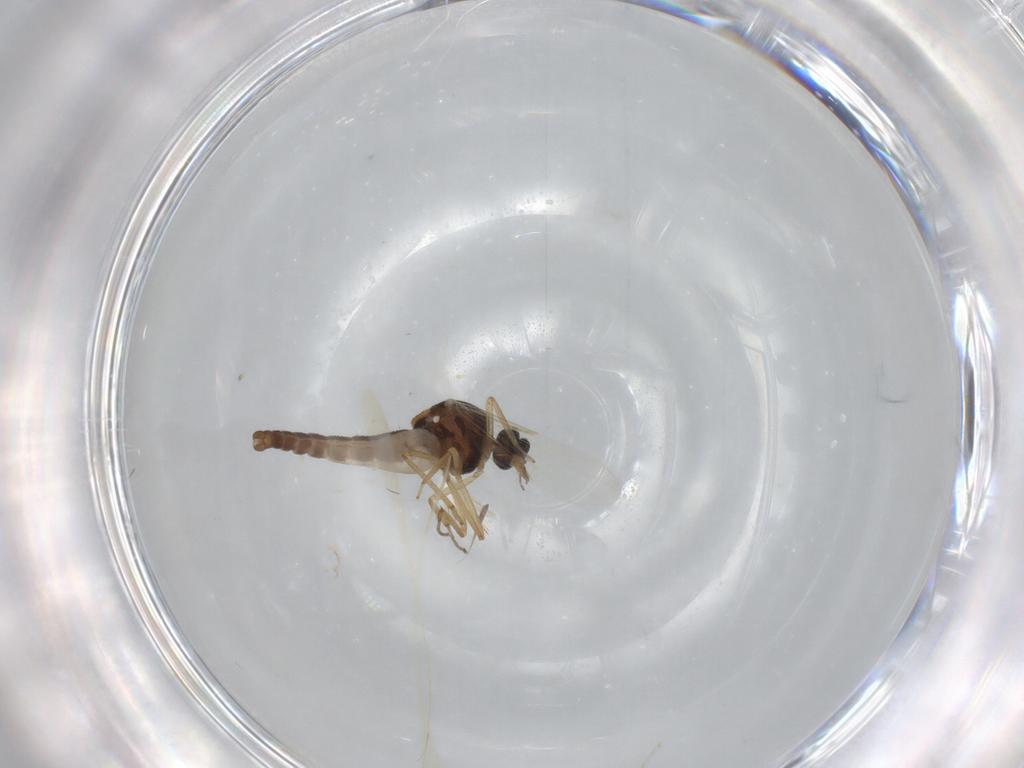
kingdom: Animalia
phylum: Arthropoda
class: Insecta
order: Diptera
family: Ceratopogonidae
